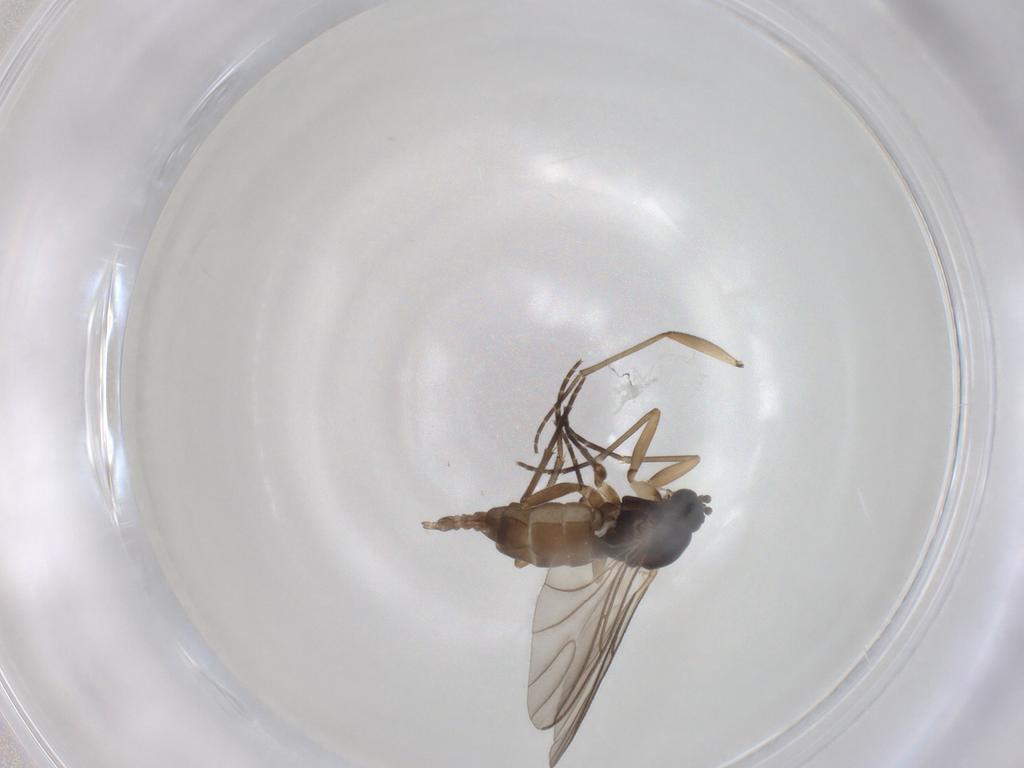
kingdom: Animalia
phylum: Arthropoda
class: Insecta
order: Diptera
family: Sciaridae
